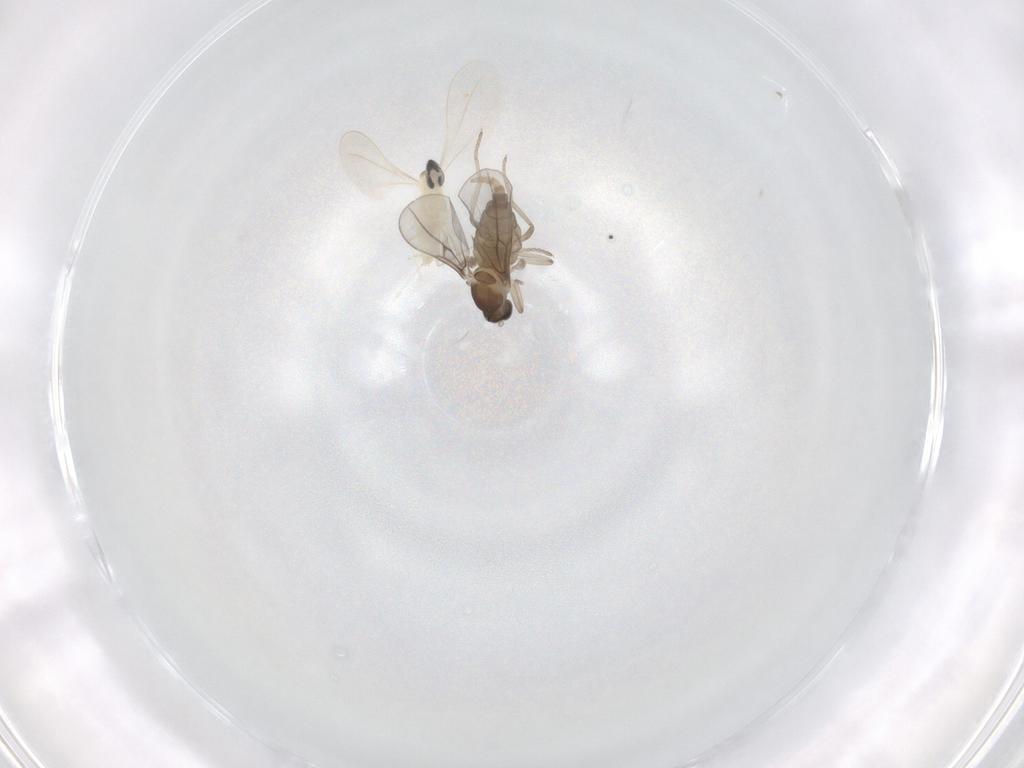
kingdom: Animalia
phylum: Arthropoda
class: Insecta
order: Diptera
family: Cecidomyiidae
